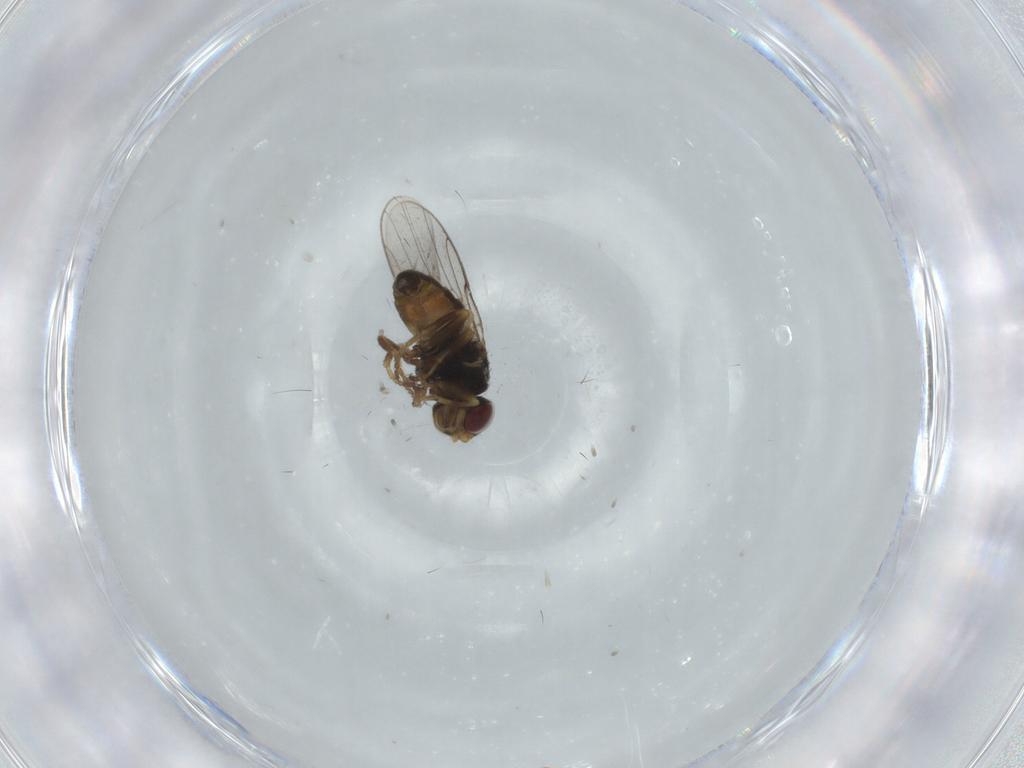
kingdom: Animalia
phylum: Arthropoda
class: Insecta
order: Diptera
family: Chloropidae
